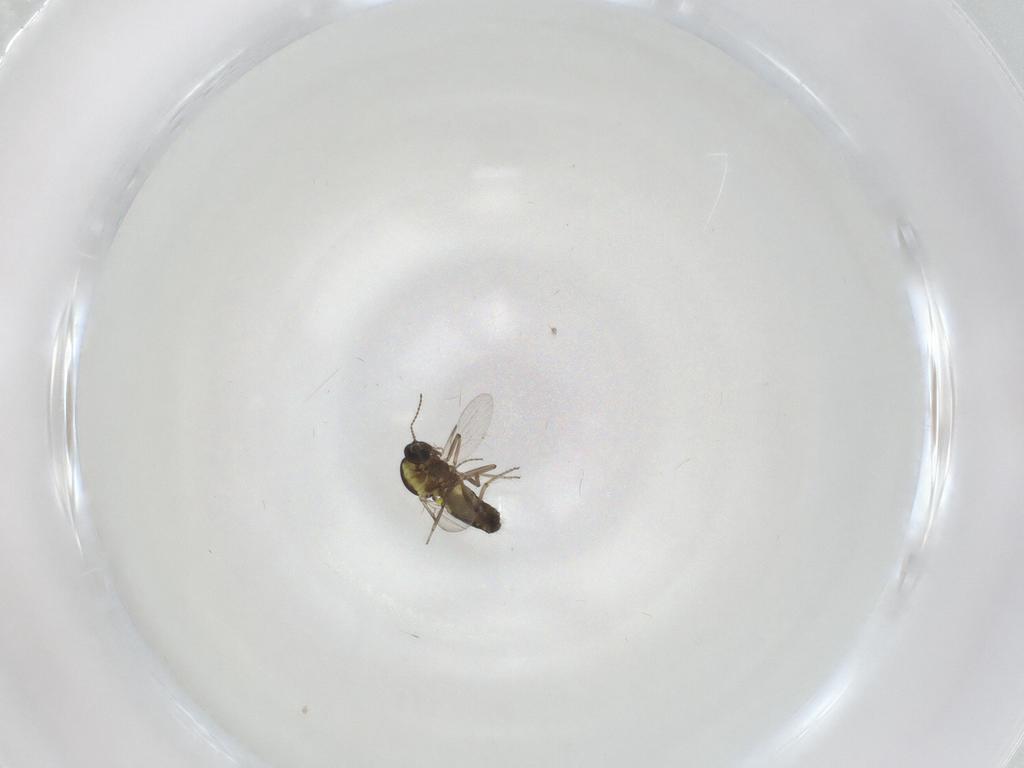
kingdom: Animalia
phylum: Arthropoda
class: Insecta
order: Diptera
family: Ceratopogonidae
